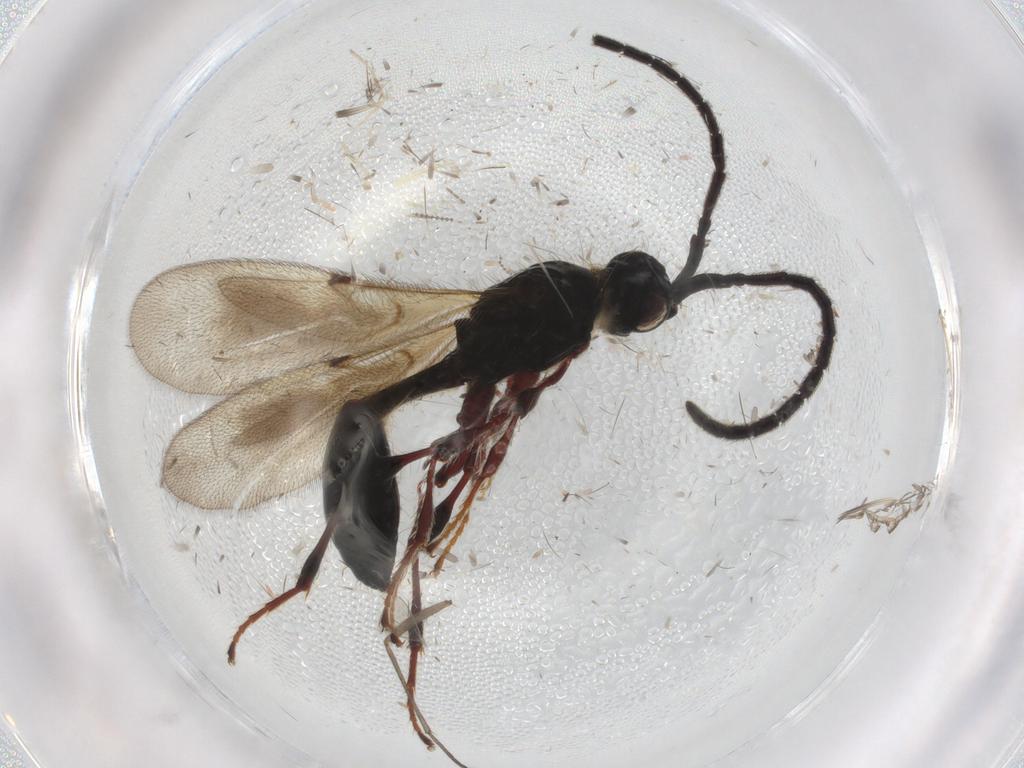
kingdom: Animalia
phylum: Arthropoda
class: Insecta
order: Hymenoptera
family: Diapriidae
